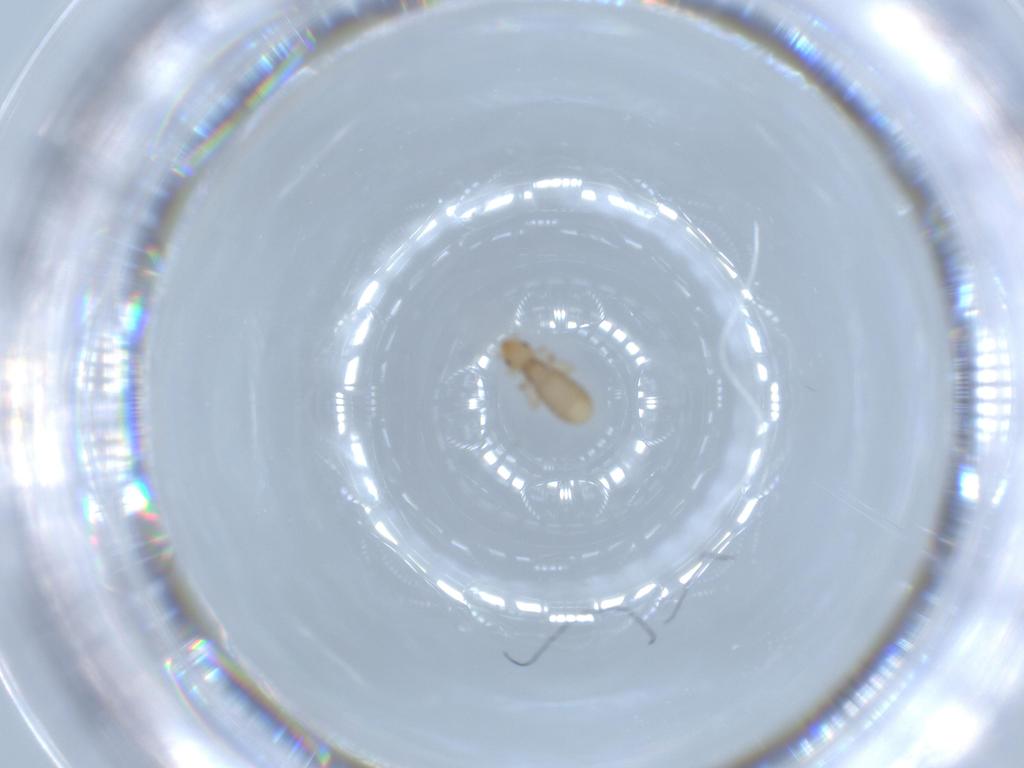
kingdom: Animalia
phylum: Arthropoda
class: Insecta
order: Psocodea
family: Liposcelididae
